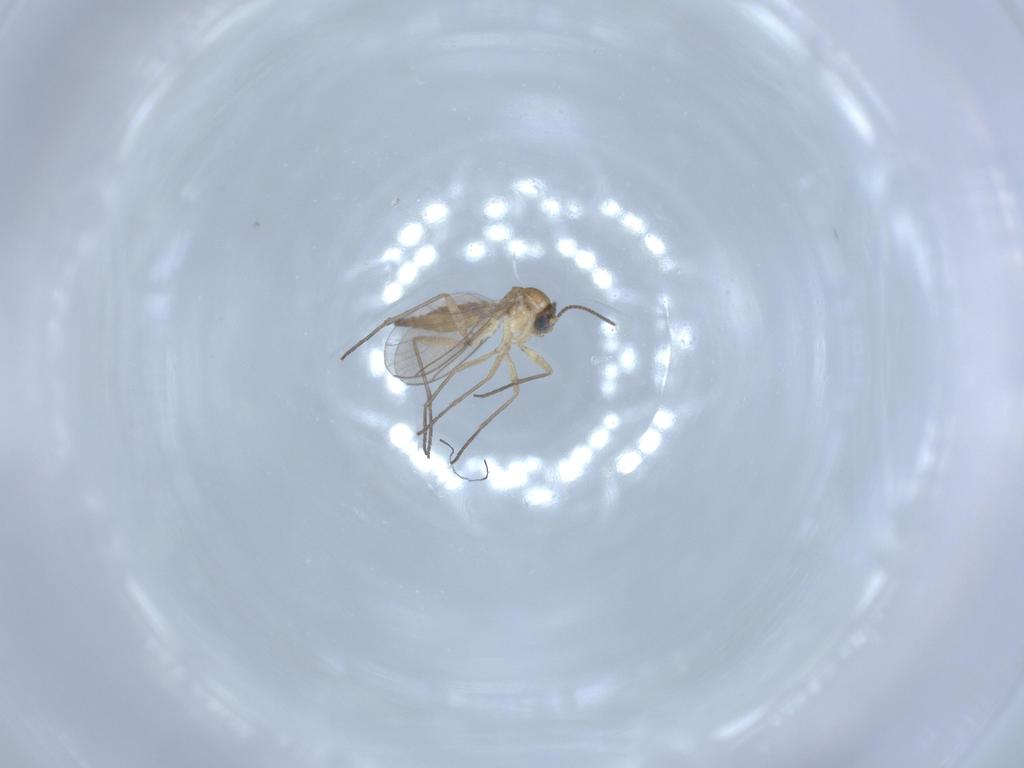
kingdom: Animalia
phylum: Arthropoda
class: Insecta
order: Diptera
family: Sciaridae
